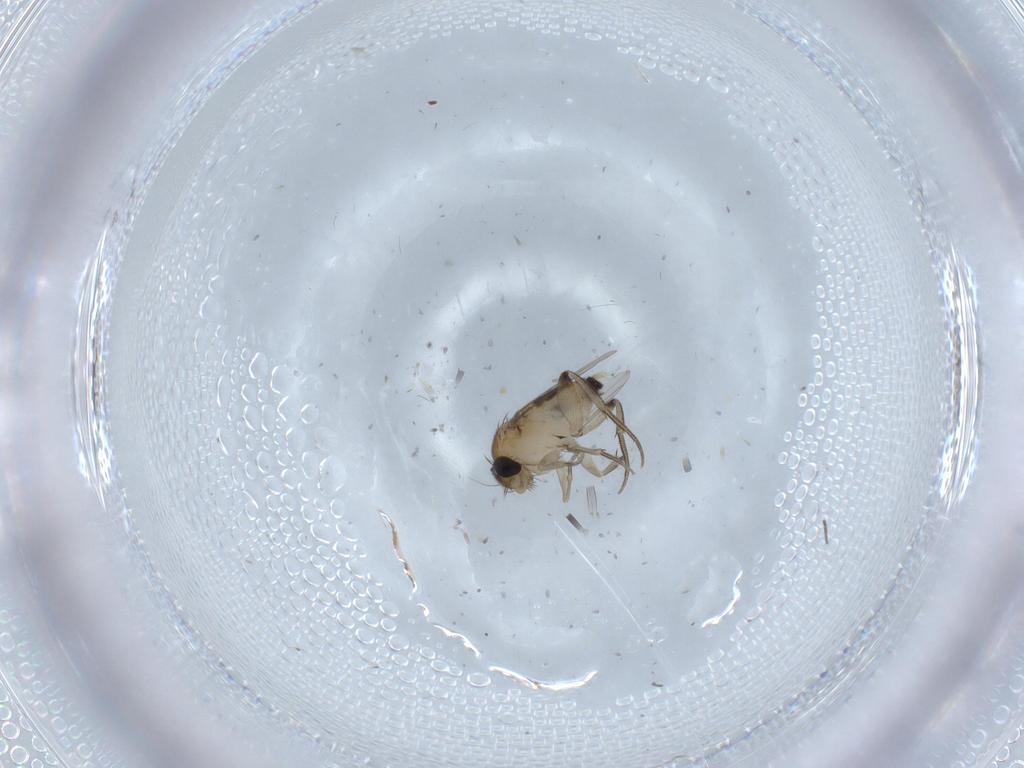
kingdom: Animalia
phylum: Arthropoda
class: Insecta
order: Diptera
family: Phoridae
